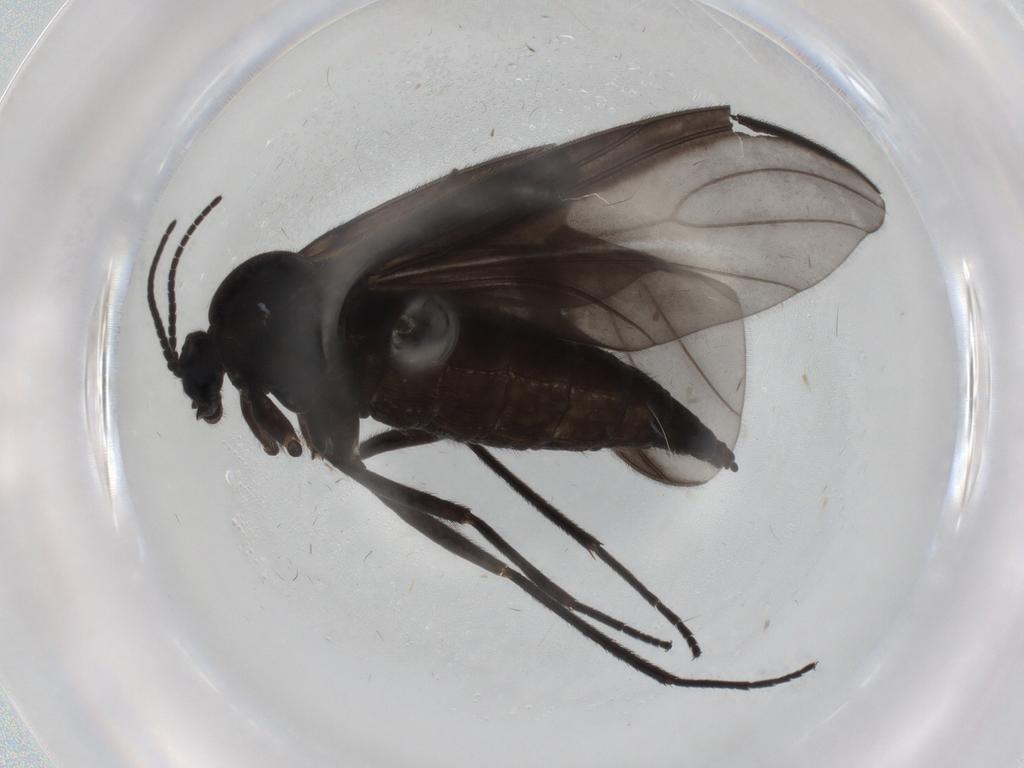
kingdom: Animalia
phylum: Arthropoda
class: Insecta
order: Diptera
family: Sciaridae
